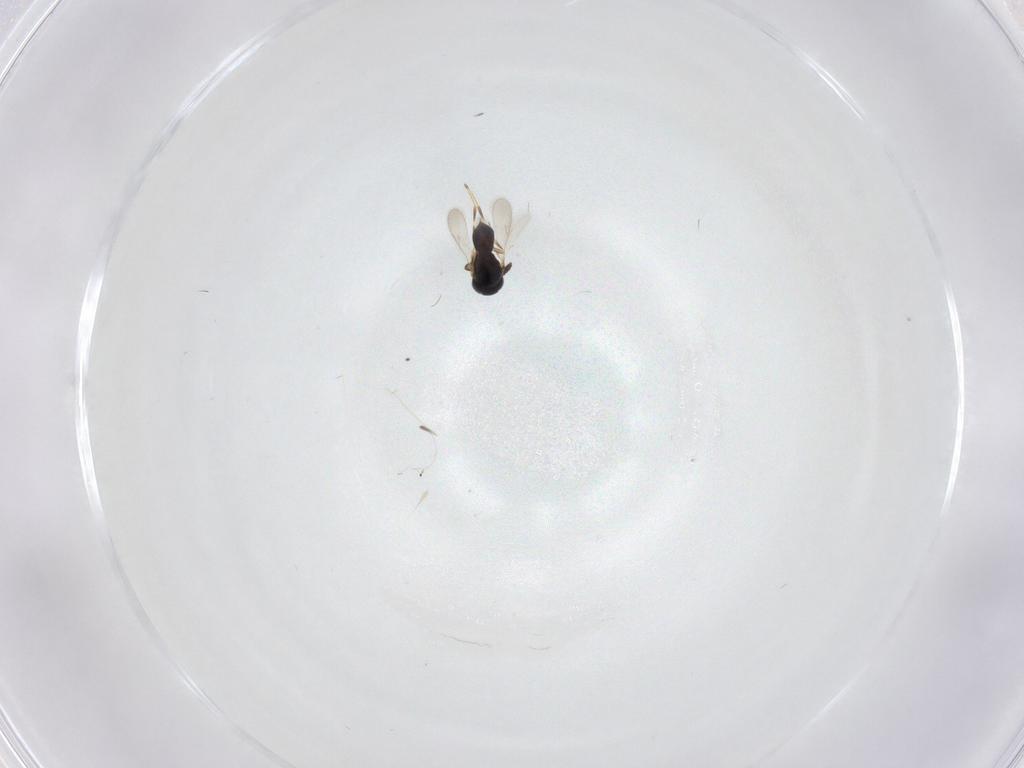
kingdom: Animalia
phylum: Arthropoda
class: Insecta
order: Hymenoptera
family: Scelionidae
